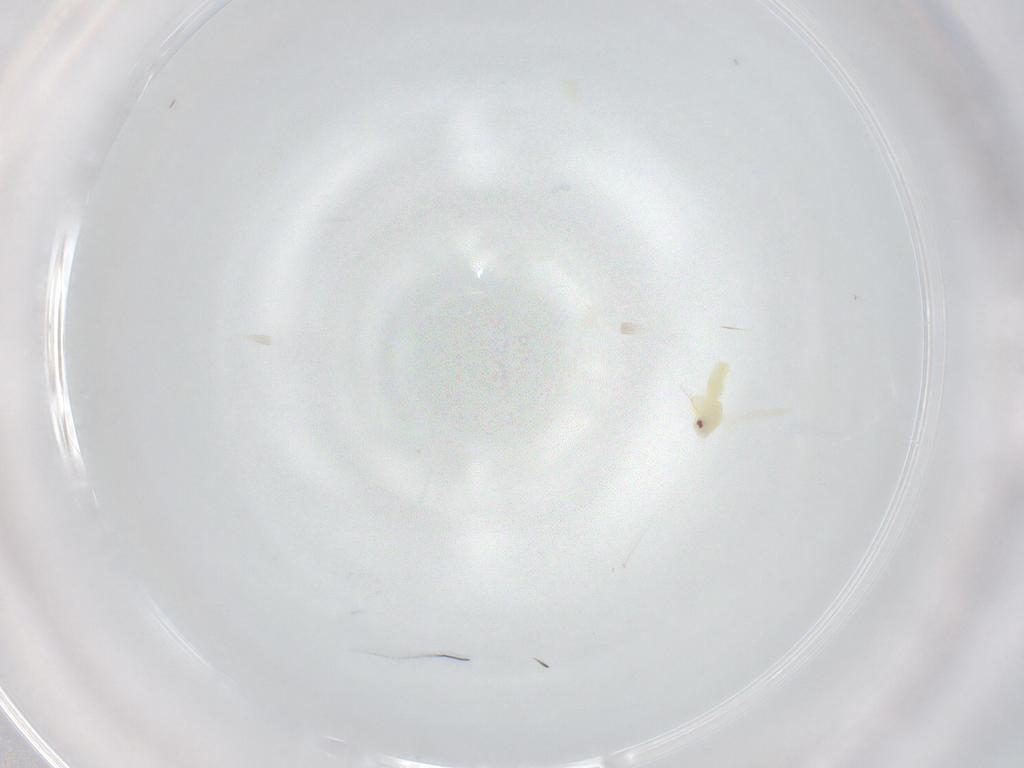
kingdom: Animalia
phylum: Arthropoda
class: Insecta
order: Hemiptera
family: Aleyrodidae
